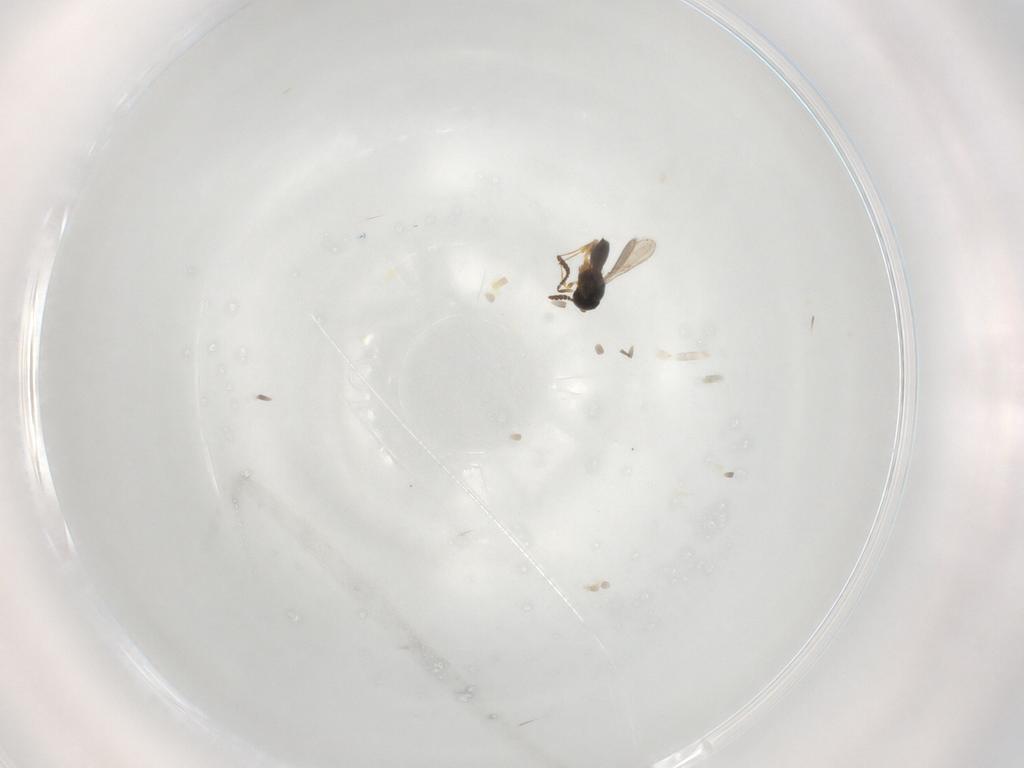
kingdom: Animalia
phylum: Arthropoda
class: Insecta
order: Hymenoptera
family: Scelionidae
